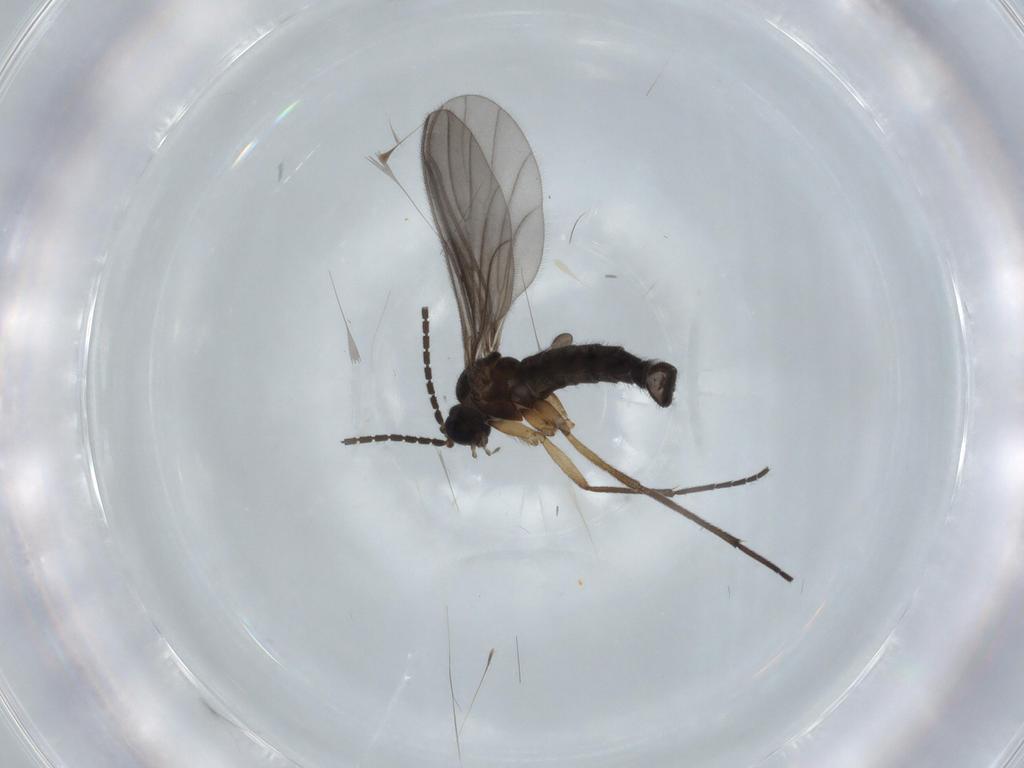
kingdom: Animalia
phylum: Arthropoda
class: Insecta
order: Diptera
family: Sciaridae
